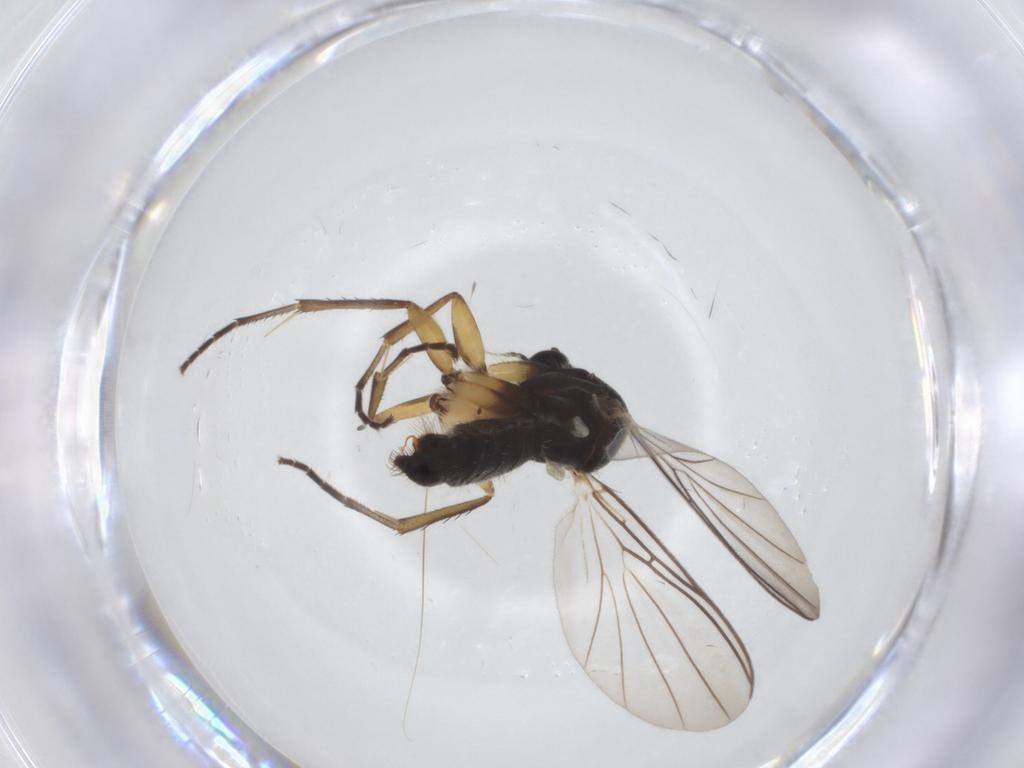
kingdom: Animalia
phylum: Arthropoda
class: Insecta
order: Diptera
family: Mycetophilidae
